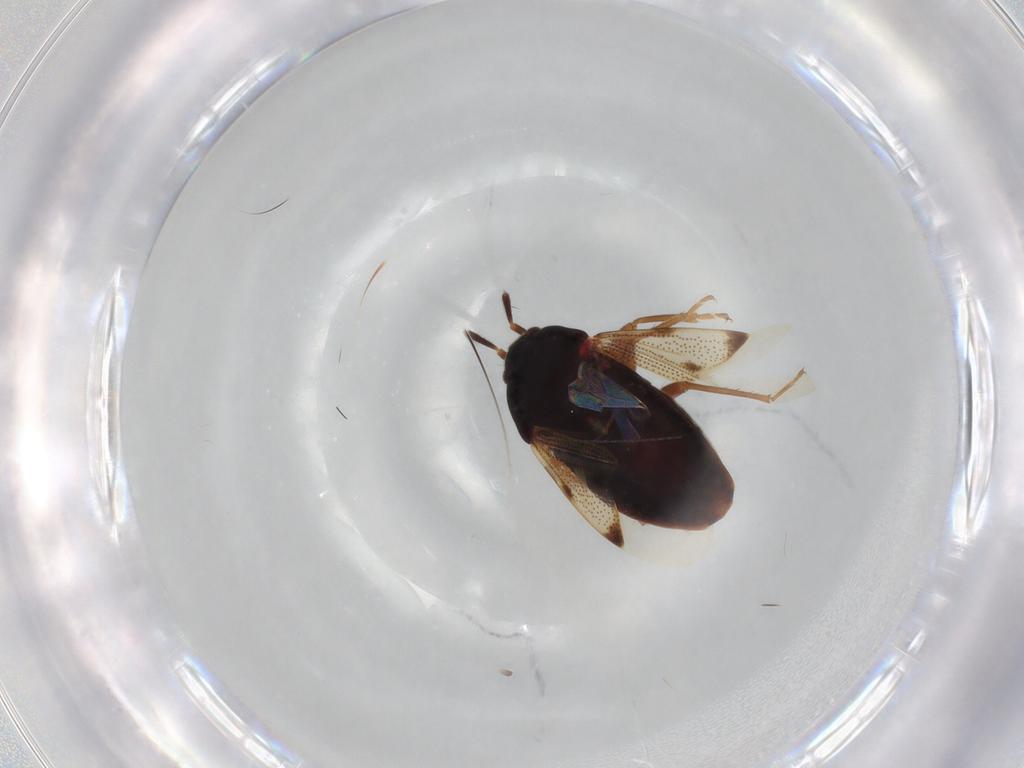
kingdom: Animalia
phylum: Arthropoda
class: Insecta
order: Hemiptera
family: Rhyparochromidae
